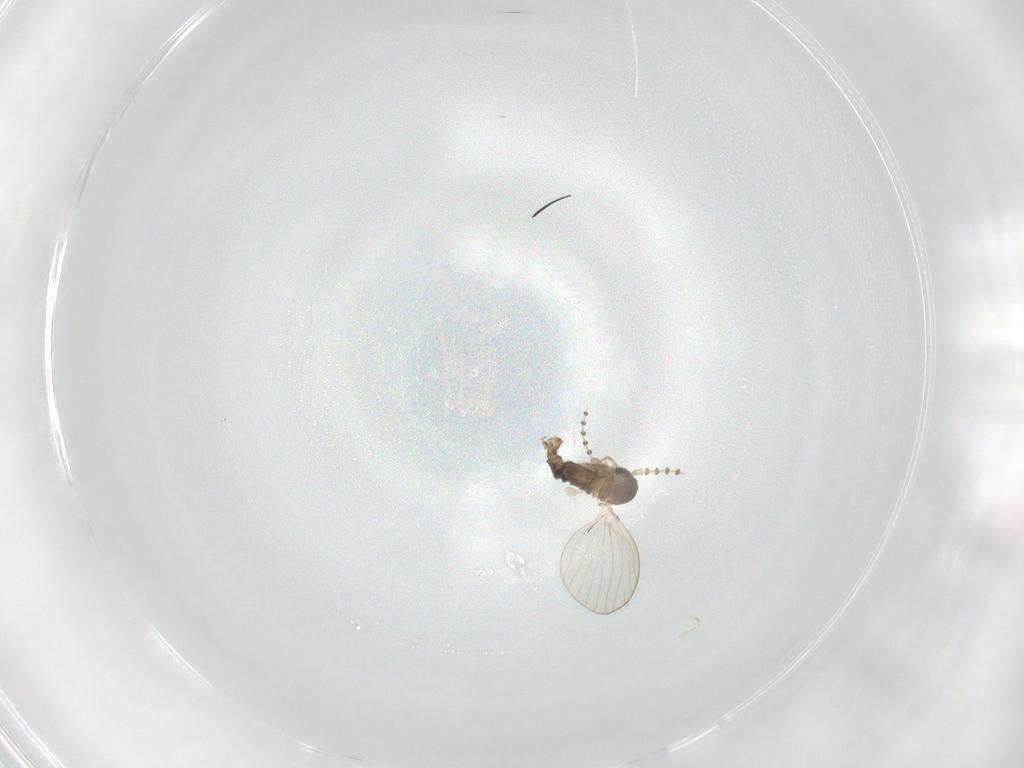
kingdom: Animalia
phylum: Arthropoda
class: Insecta
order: Diptera
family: Psychodidae
